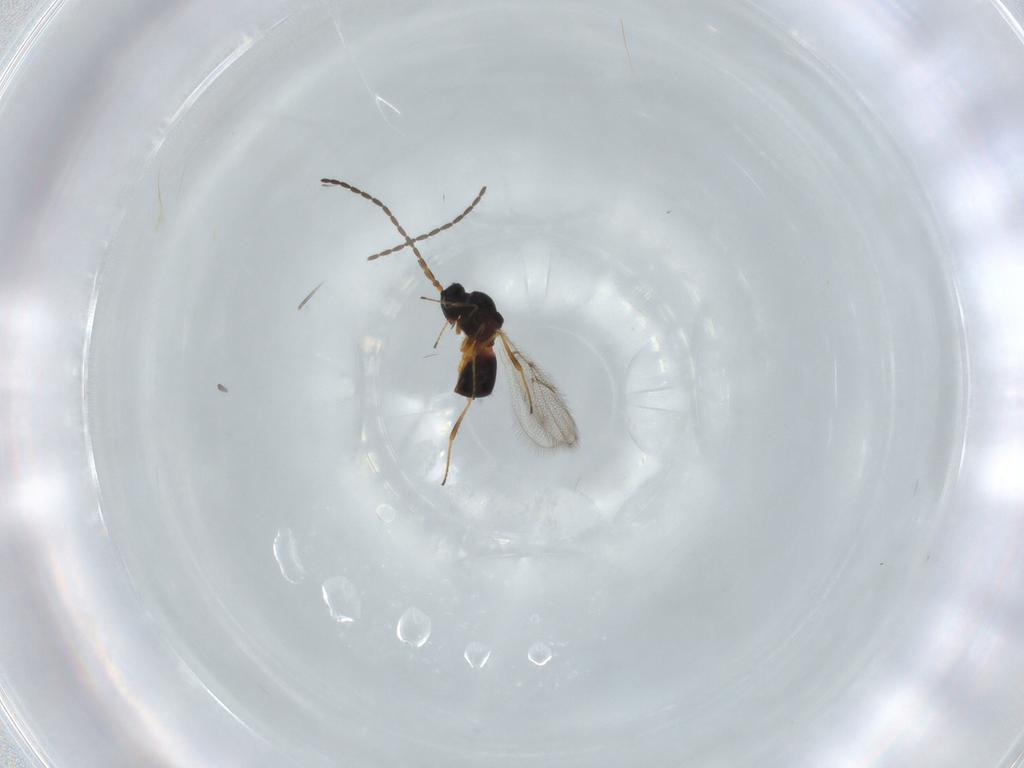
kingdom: Animalia
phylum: Arthropoda
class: Insecta
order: Hymenoptera
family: Figitidae
